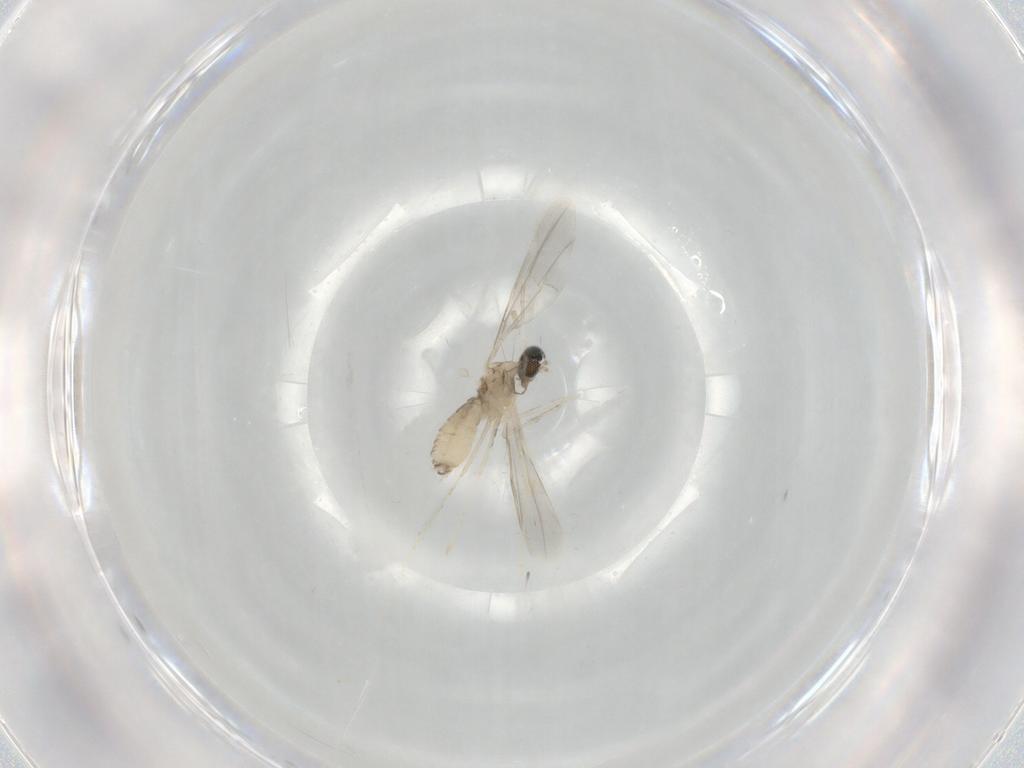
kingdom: Animalia
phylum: Arthropoda
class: Insecta
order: Diptera
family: Cecidomyiidae
